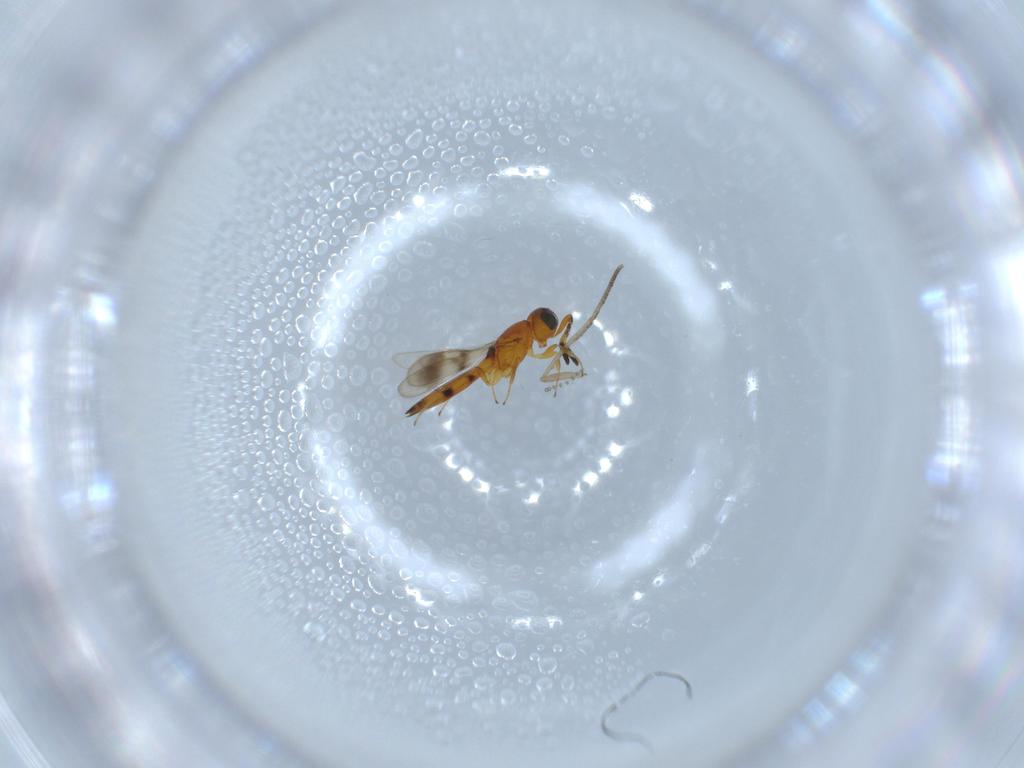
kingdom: Animalia
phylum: Arthropoda
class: Insecta
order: Hymenoptera
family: Scelionidae
